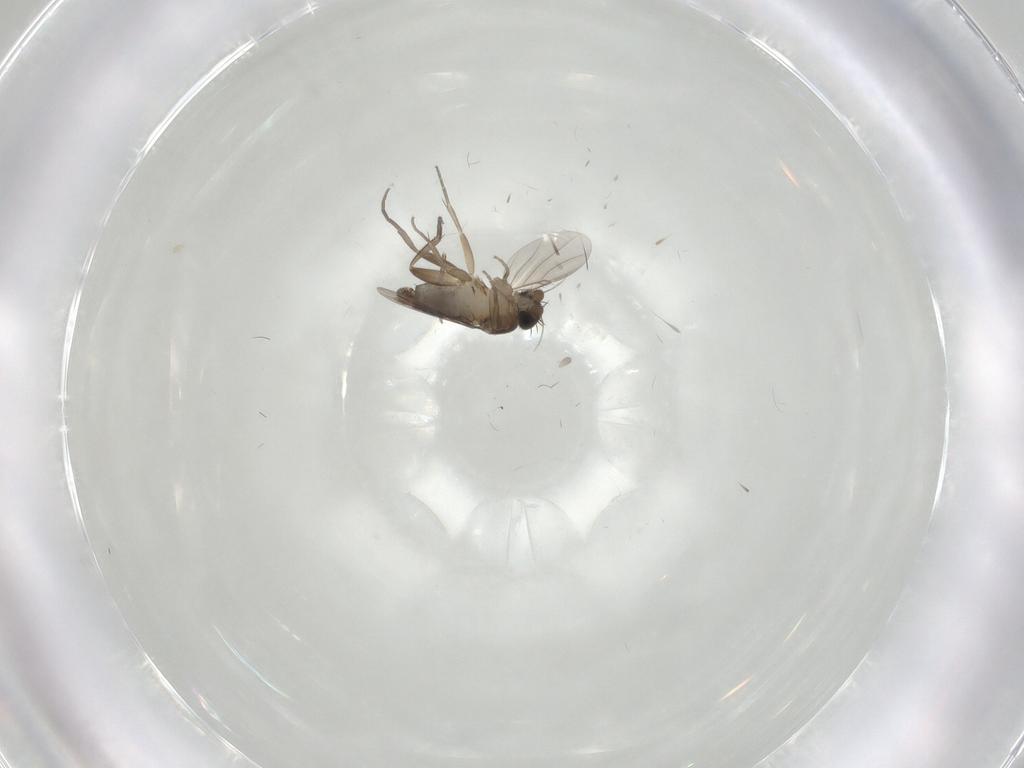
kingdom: Animalia
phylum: Arthropoda
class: Insecta
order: Diptera
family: Phoridae
